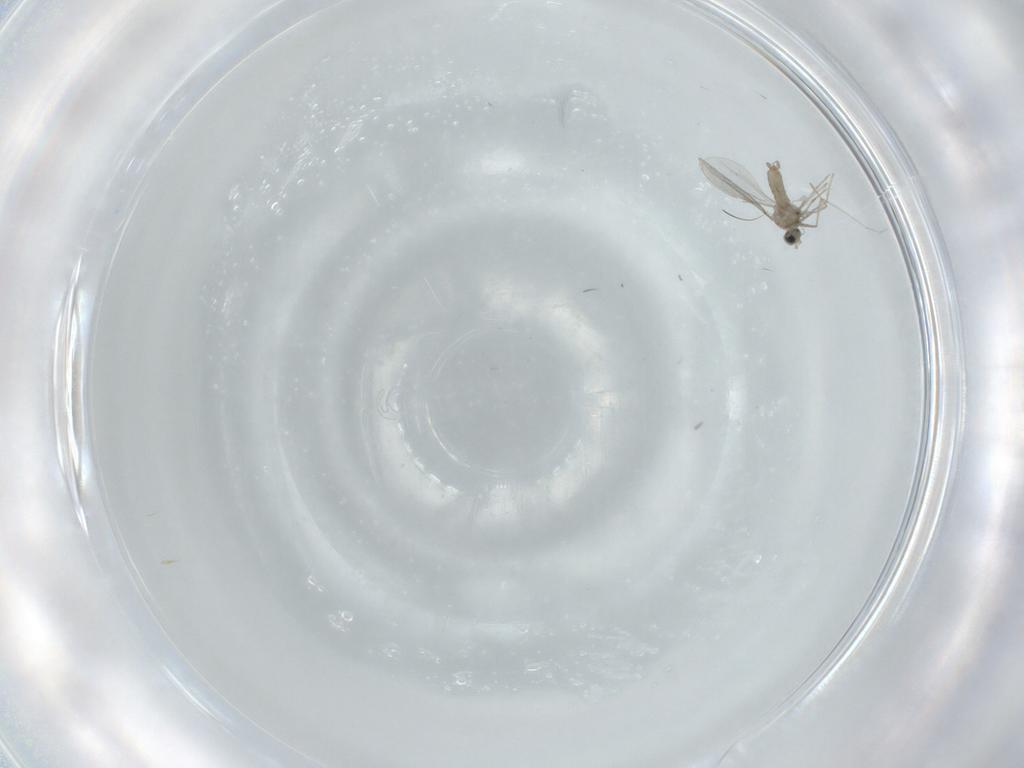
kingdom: Animalia
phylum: Arthropoda
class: Insecta
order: Diptera
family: Cecidomyiidae
